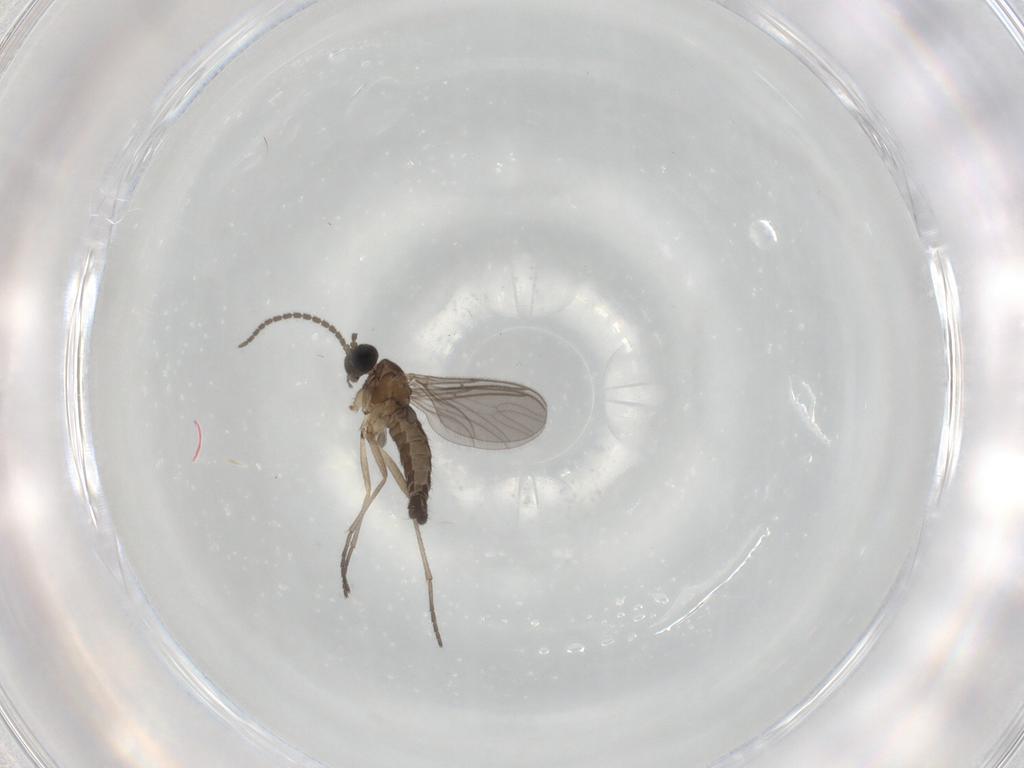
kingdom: Animalia
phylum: Arthropoda
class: Insecta
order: Diptera
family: Sciaridae
